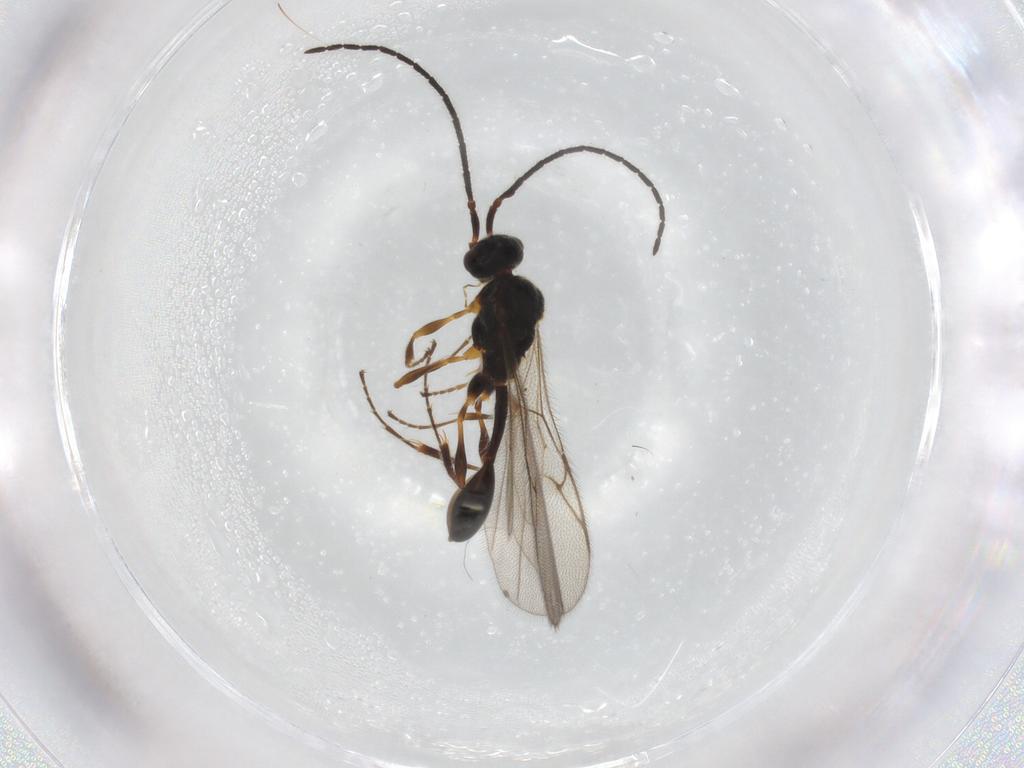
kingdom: Animalia
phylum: Arthropoda
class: Insecta
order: Hymenoptera
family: Diapriidae
